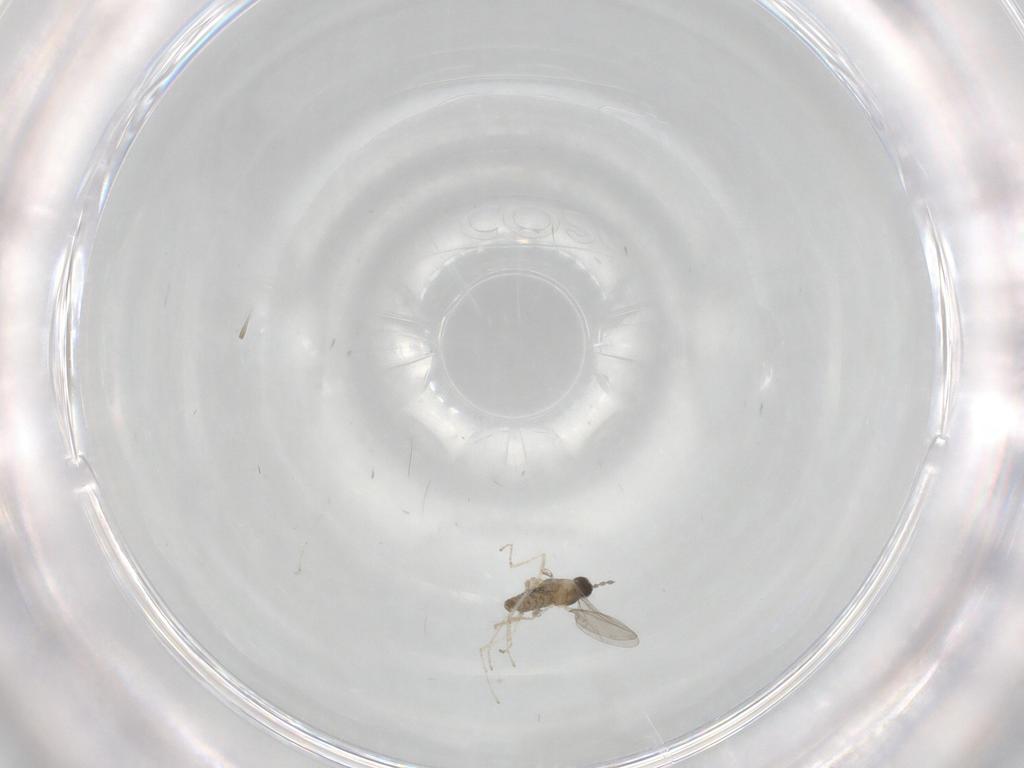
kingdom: Animalia
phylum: Arthropoda
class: Insecta
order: Diptera
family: Cecidomyiidae
